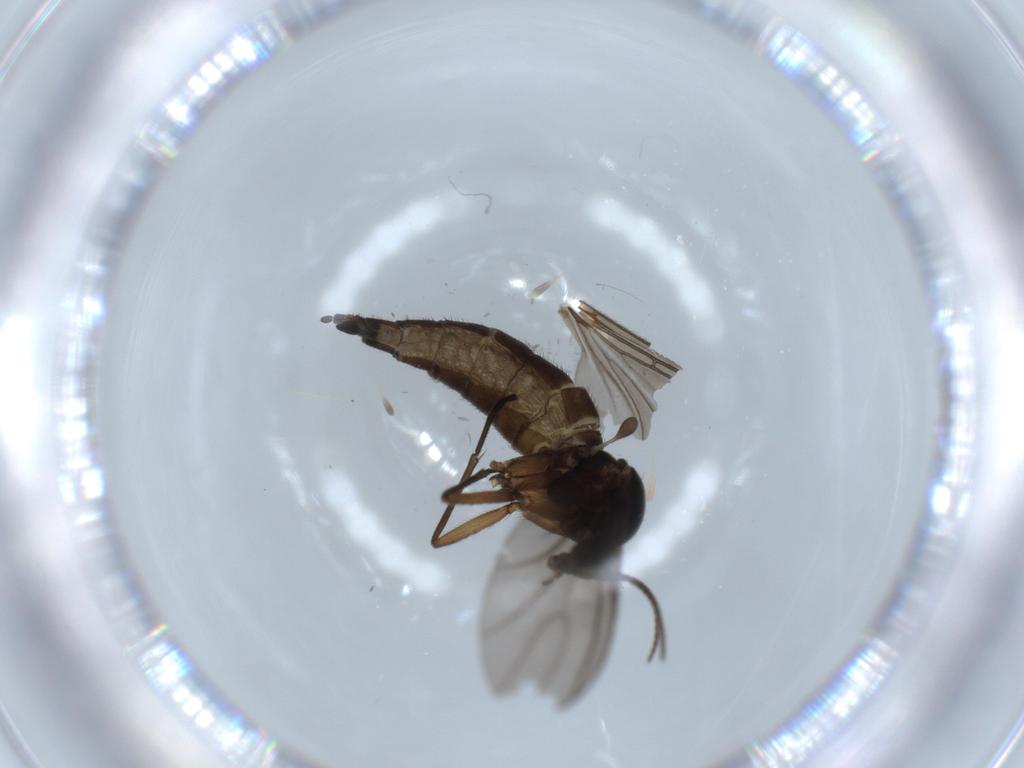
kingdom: Animalia
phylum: Arthropoda
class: Insecta
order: Diptera
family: Sciaridae
